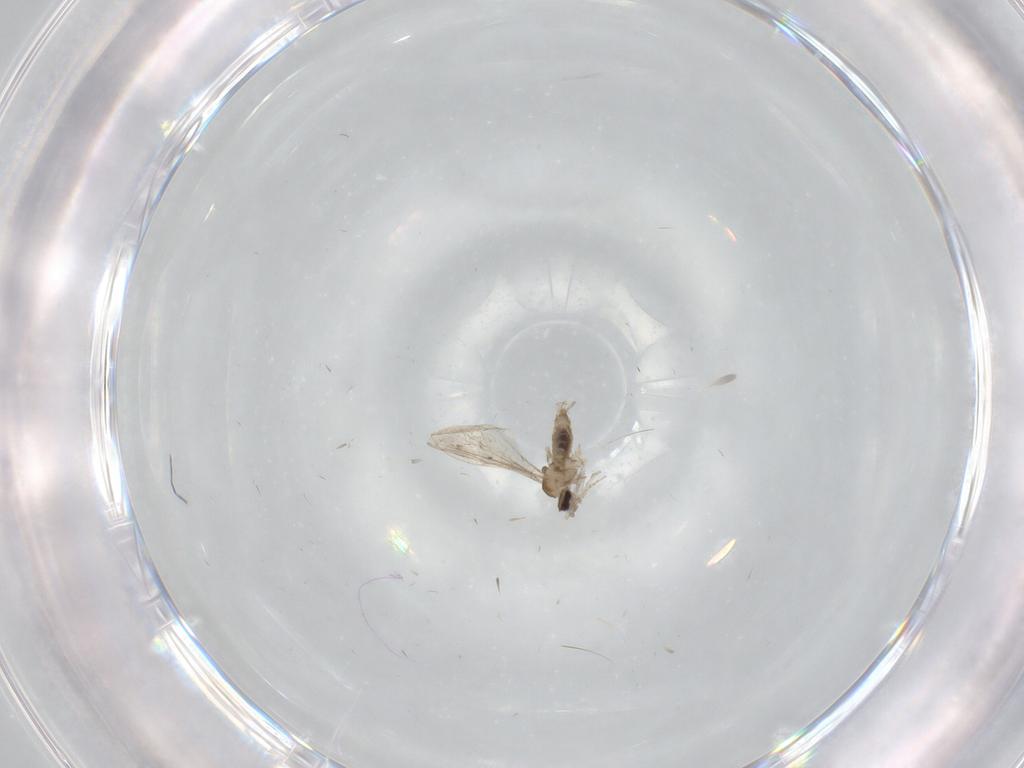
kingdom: Animalia
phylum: Arthropoda
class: Insecta
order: Diptera
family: Psychodidae
